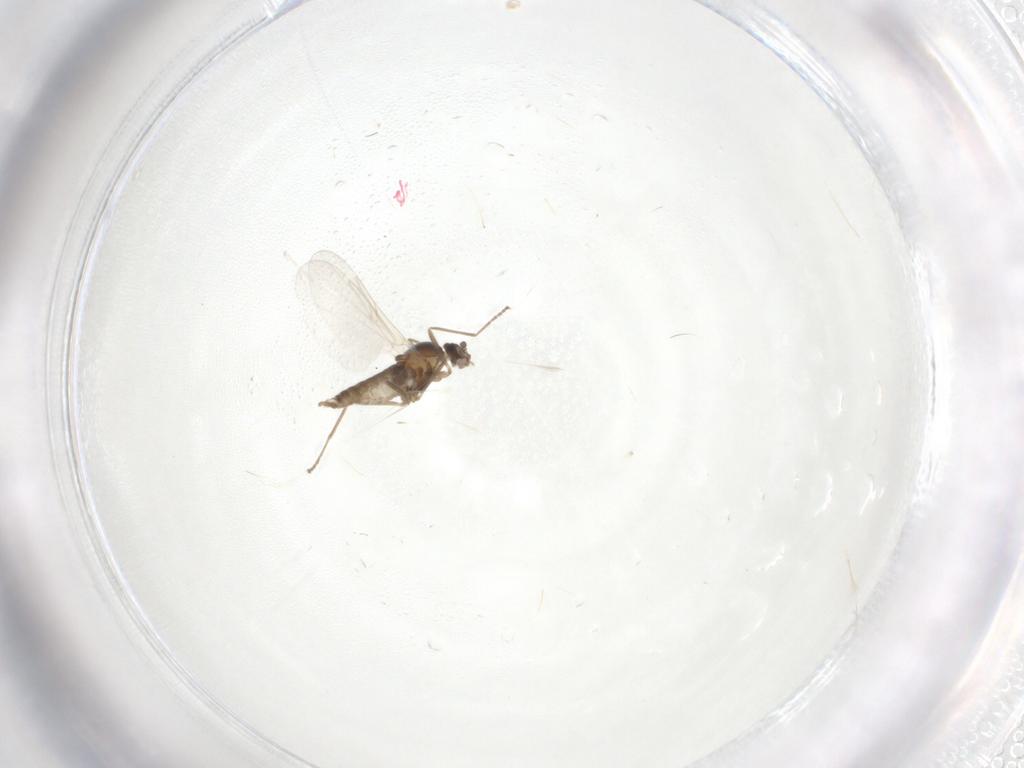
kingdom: Animalia
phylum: Arthropoda
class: Insecta
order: Diptera
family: Cecidomyiidae
